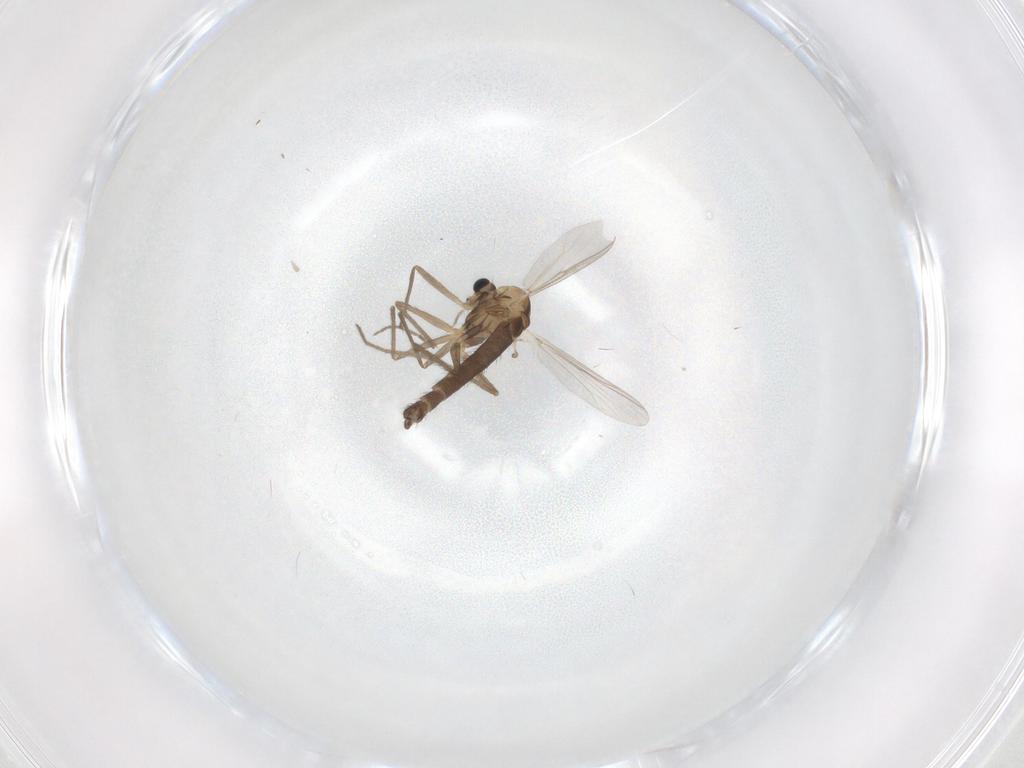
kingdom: Animalia
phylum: Arthropoda
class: Insecta
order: Diptera
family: Chironomidae
